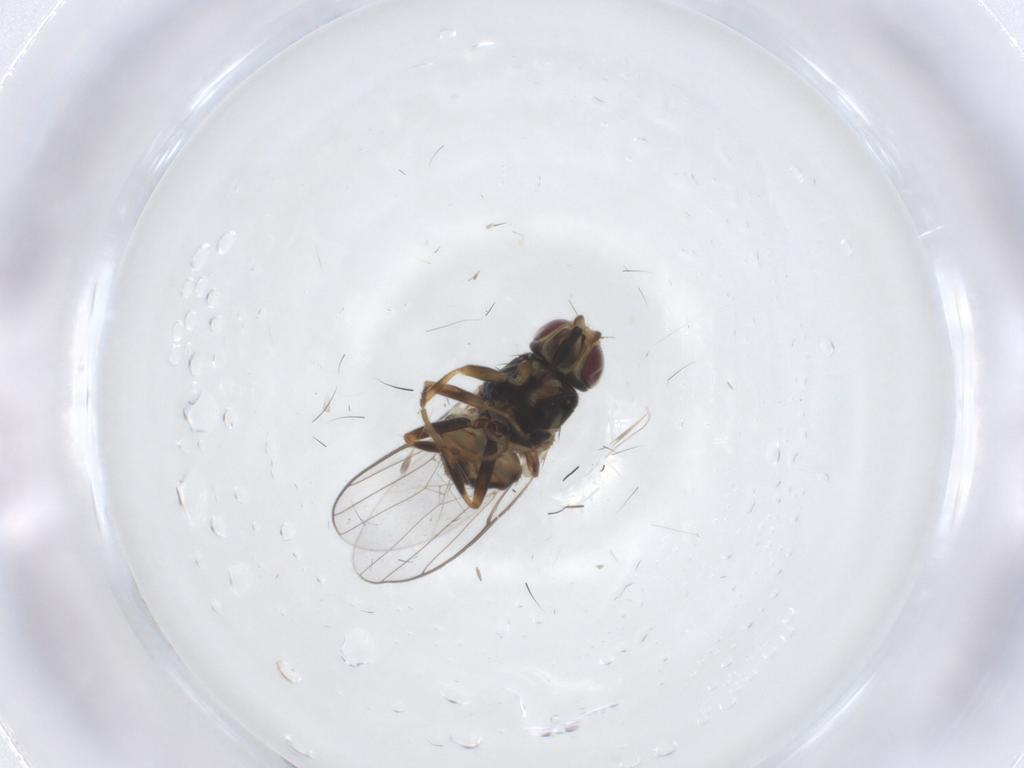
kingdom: Animalia
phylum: Arthropoda
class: Insecta
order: Diptera
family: Chloropidae
